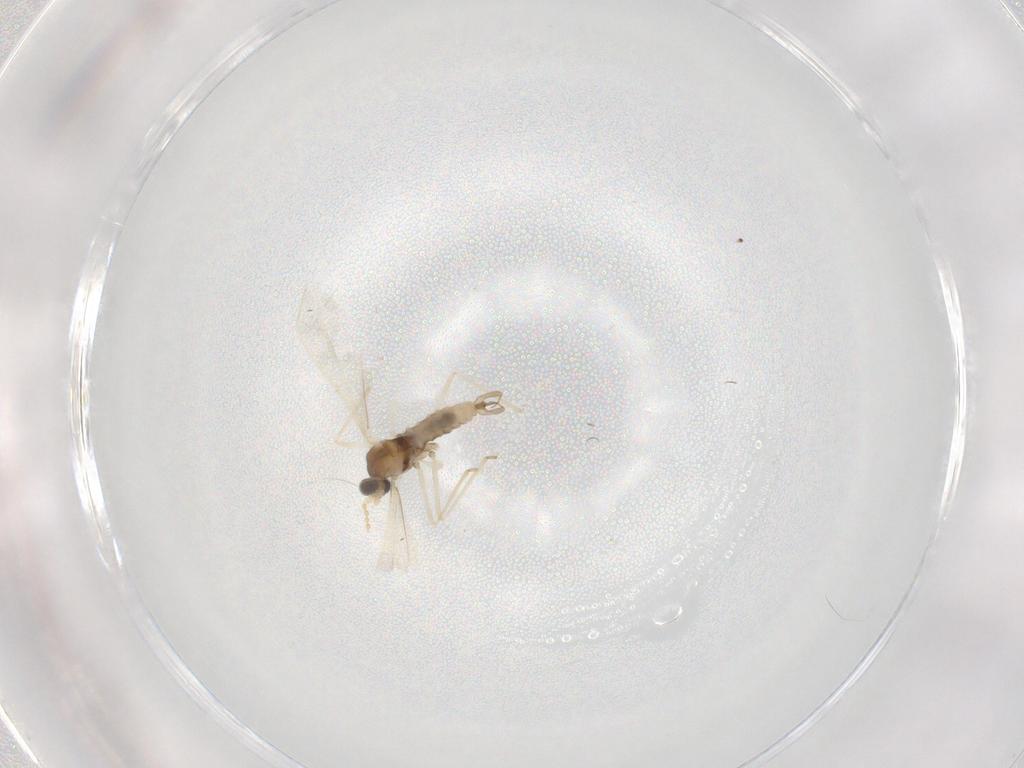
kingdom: Animalia
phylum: Arthropoda
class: Insecta
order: Diptera
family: Cecidomyiidae
